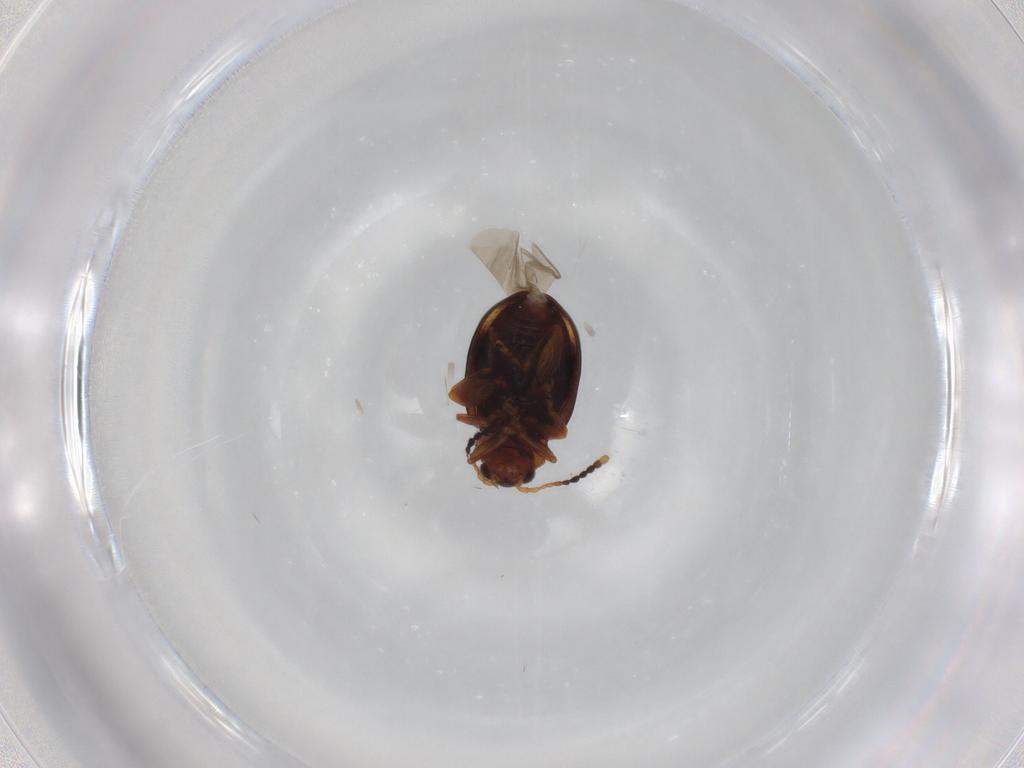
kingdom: Animalia
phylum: Arthropoda
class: Insecta
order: Coleoptera
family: Chrysomelidae
